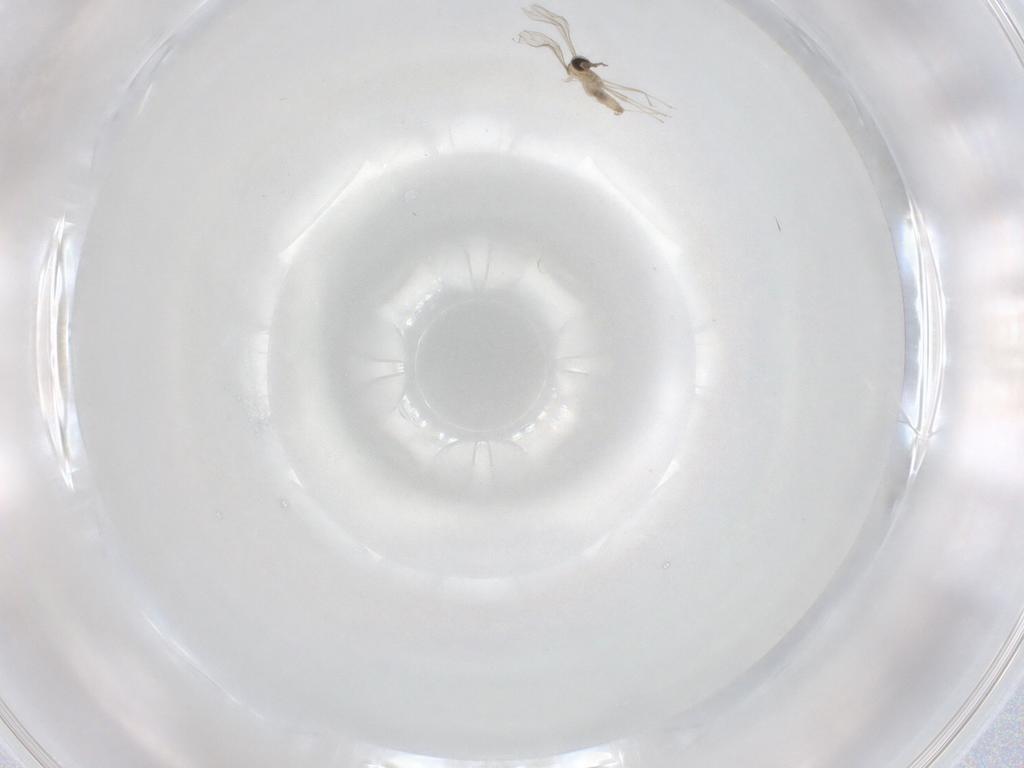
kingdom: Animalia
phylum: Arthropoda
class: Insecta
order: Diptera
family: Cecidomyiidae
